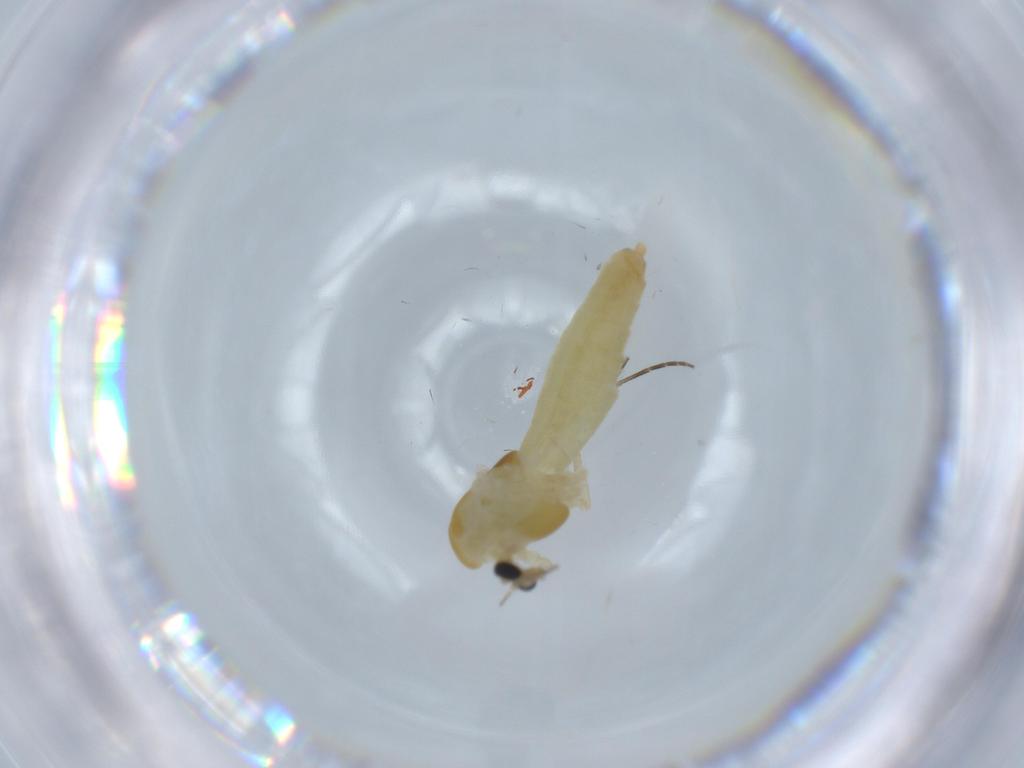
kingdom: Animalia
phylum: Arthropoda
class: Insecta
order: Diptera
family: Chironomidae
